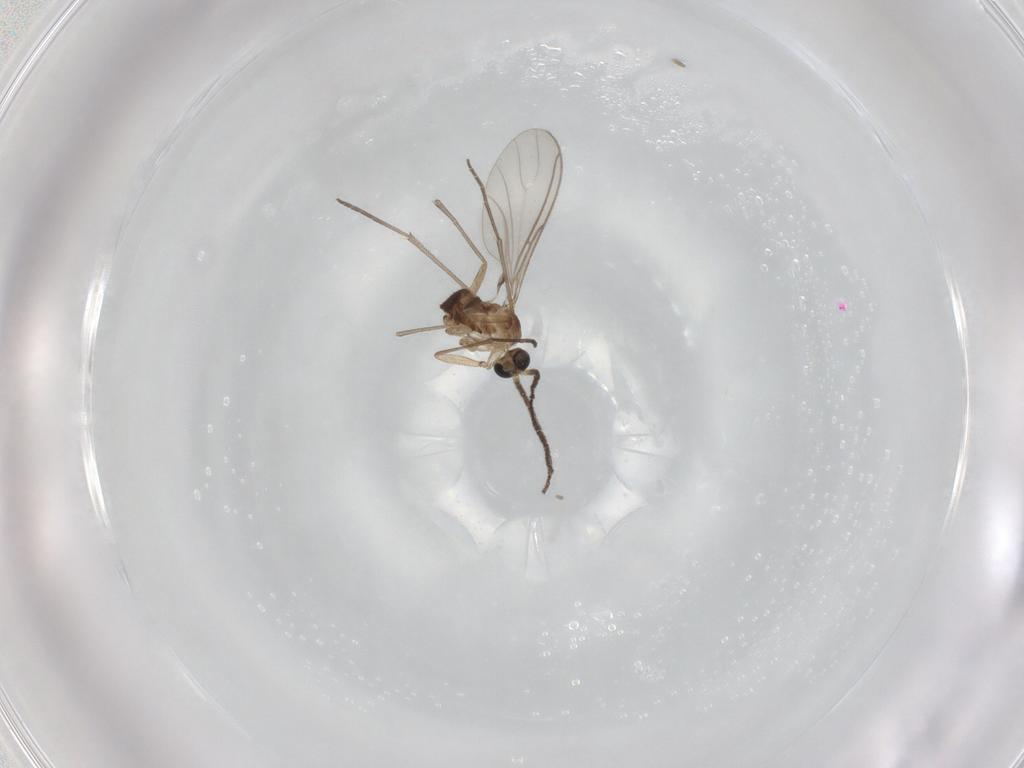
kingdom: Animalia
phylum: Arthropoda
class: Insecta
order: Diptera
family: Sciaridae
